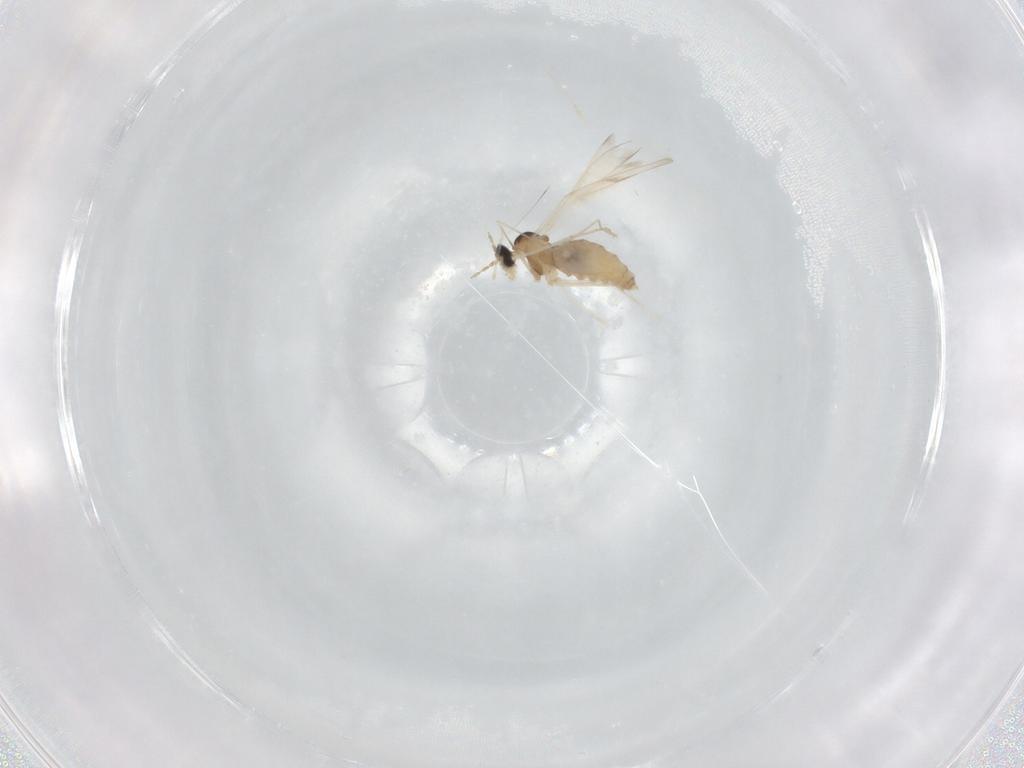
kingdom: Animalia
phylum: Arthropoda
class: Insecta
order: Diptera
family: Cecidomyiidae
